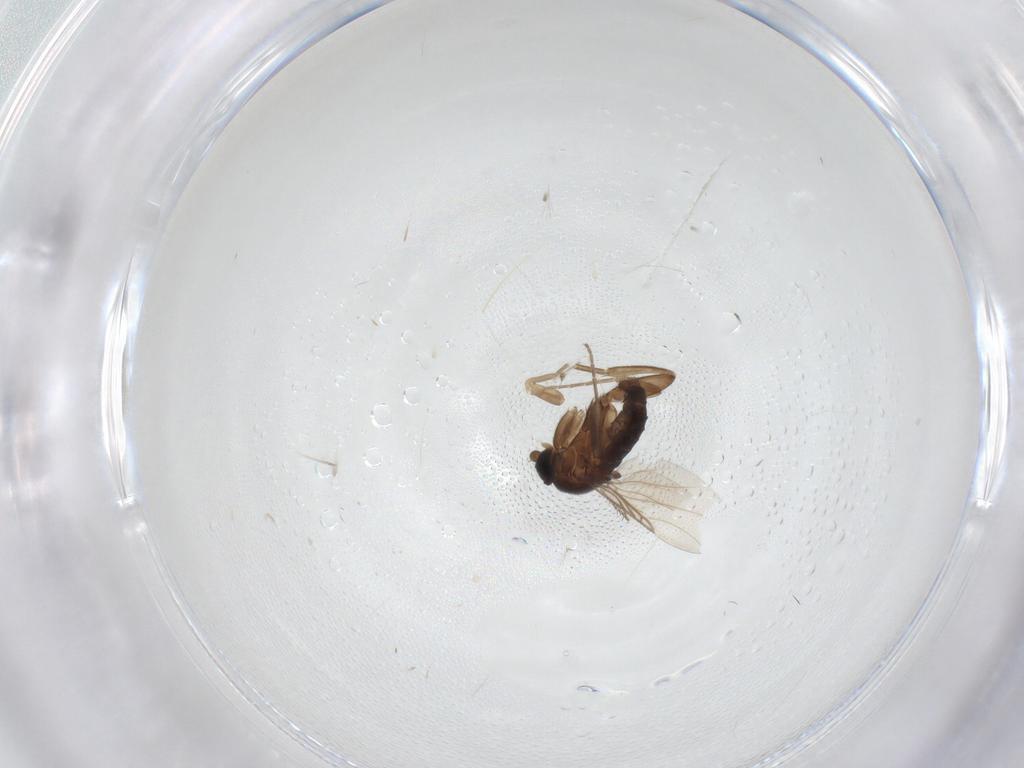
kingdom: Animalia
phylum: Arthropoda
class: Insecta
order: Diptera
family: Phoridae
